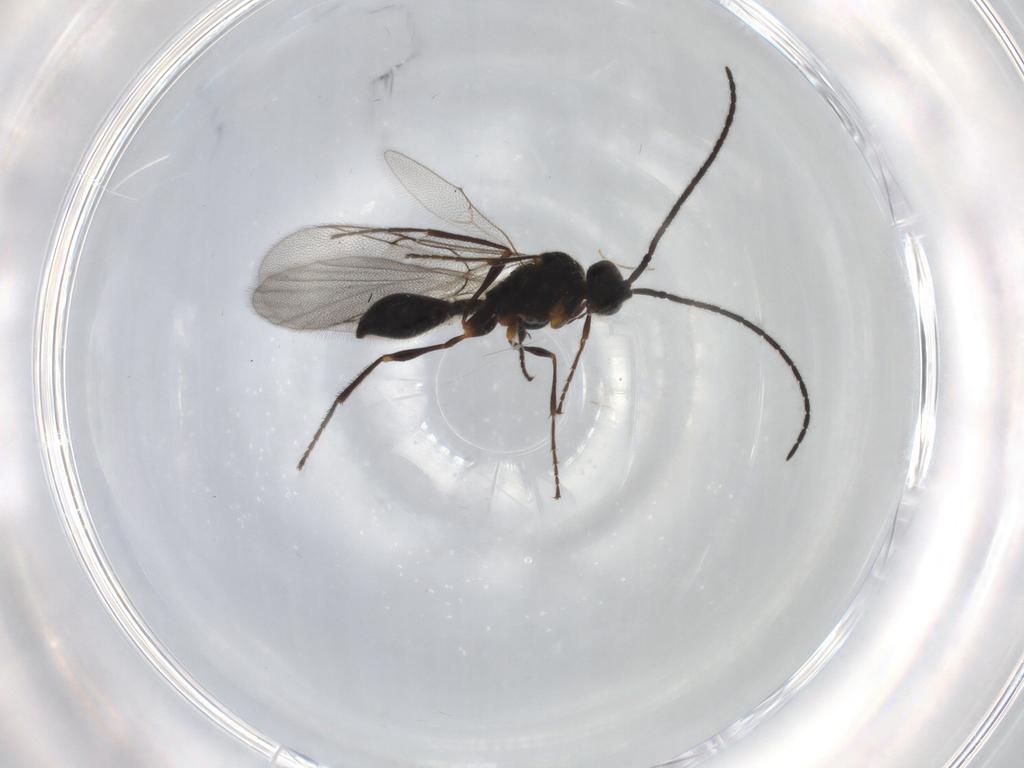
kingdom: Animalia
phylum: Arthropoda
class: Insecta
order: Hymenoptera
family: Diapriidae
